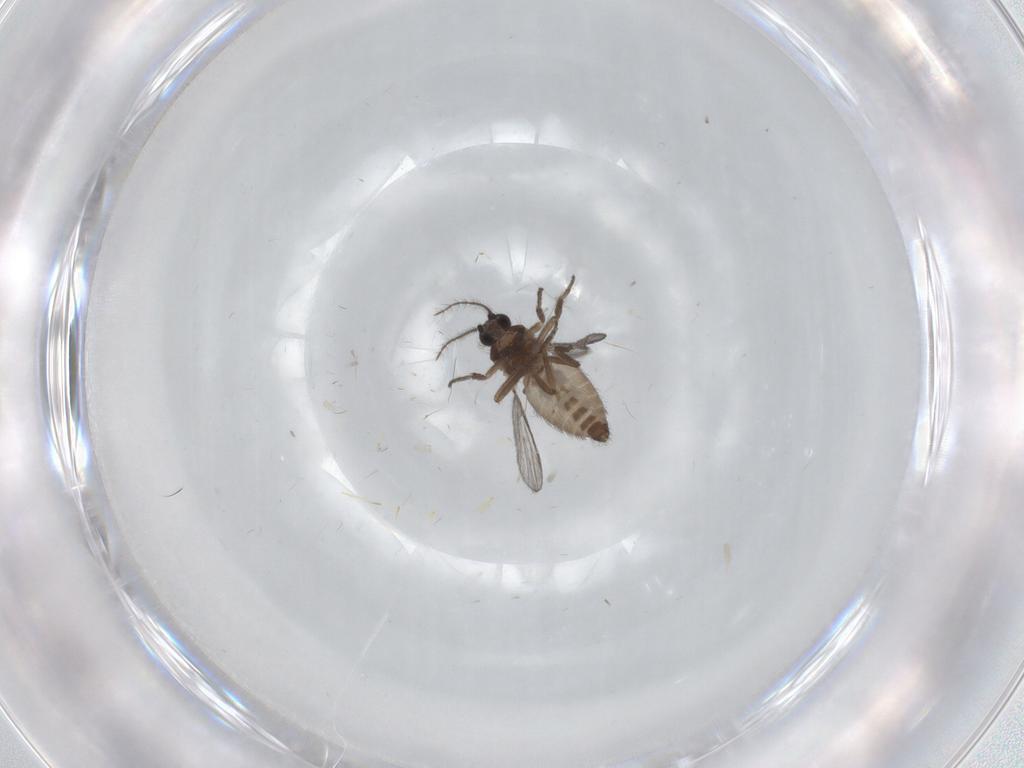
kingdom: Animalia
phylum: Arthropoda
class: Insecta
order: Diptera
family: Ceratopogonidae
